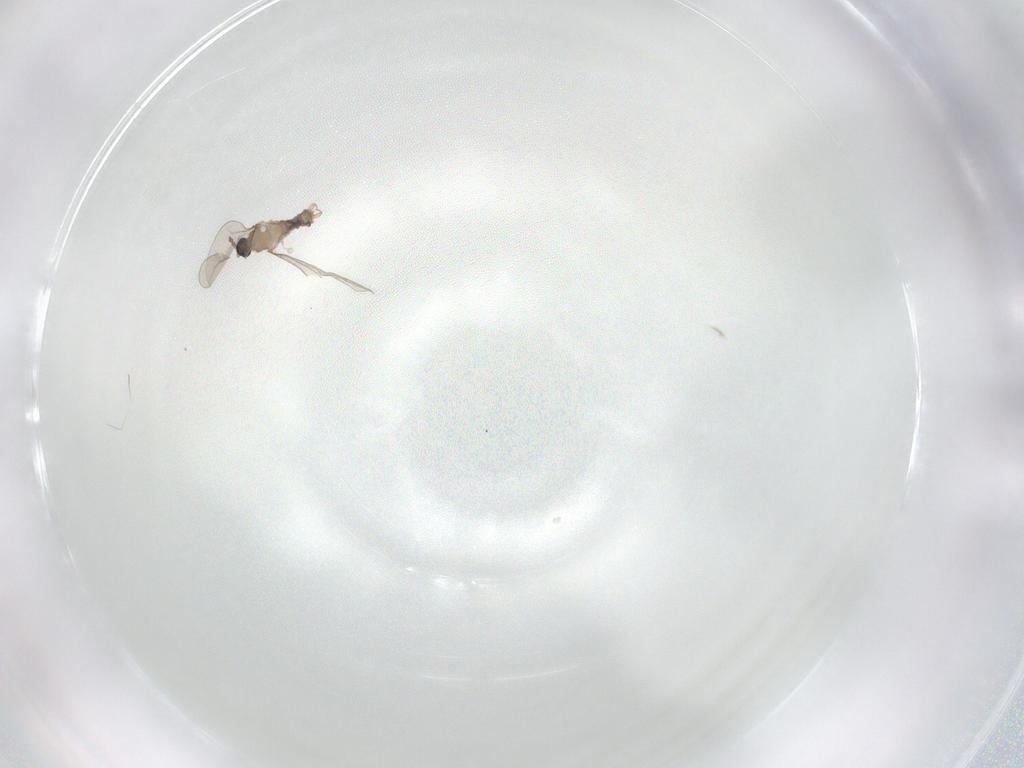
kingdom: Animalia
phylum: Arthropoda
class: Insecta
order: Diptera
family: Cecidomyiidae
